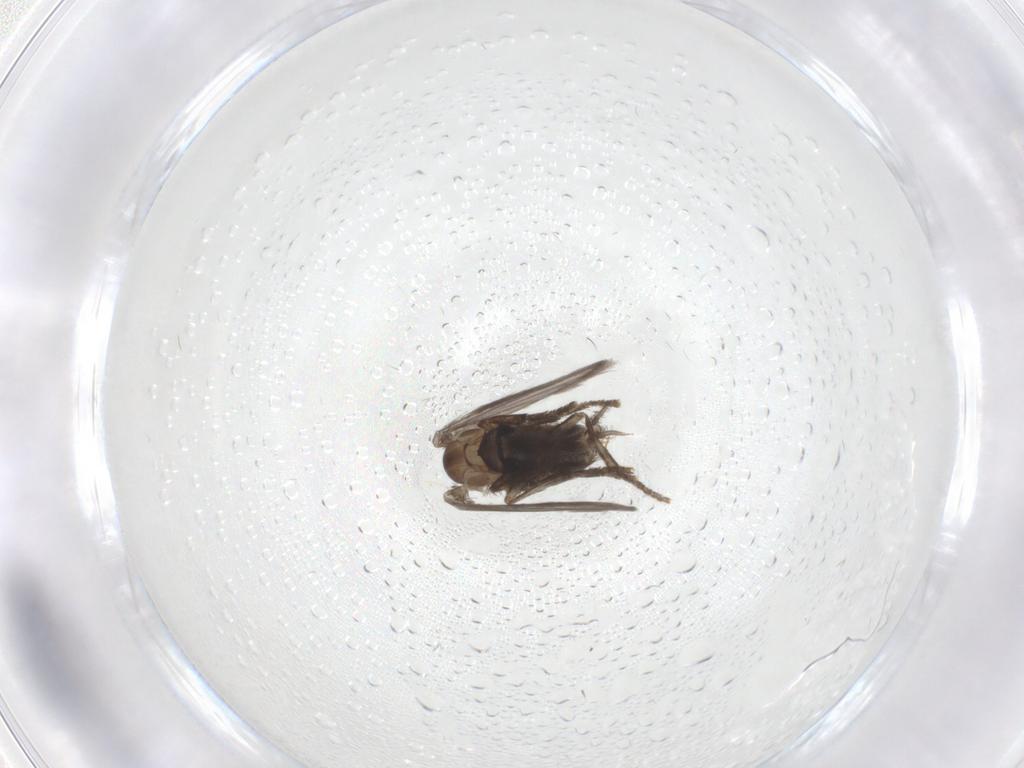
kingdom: Animalia
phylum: Arthropoda
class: Insecta
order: Diptera
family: Psychodidae
